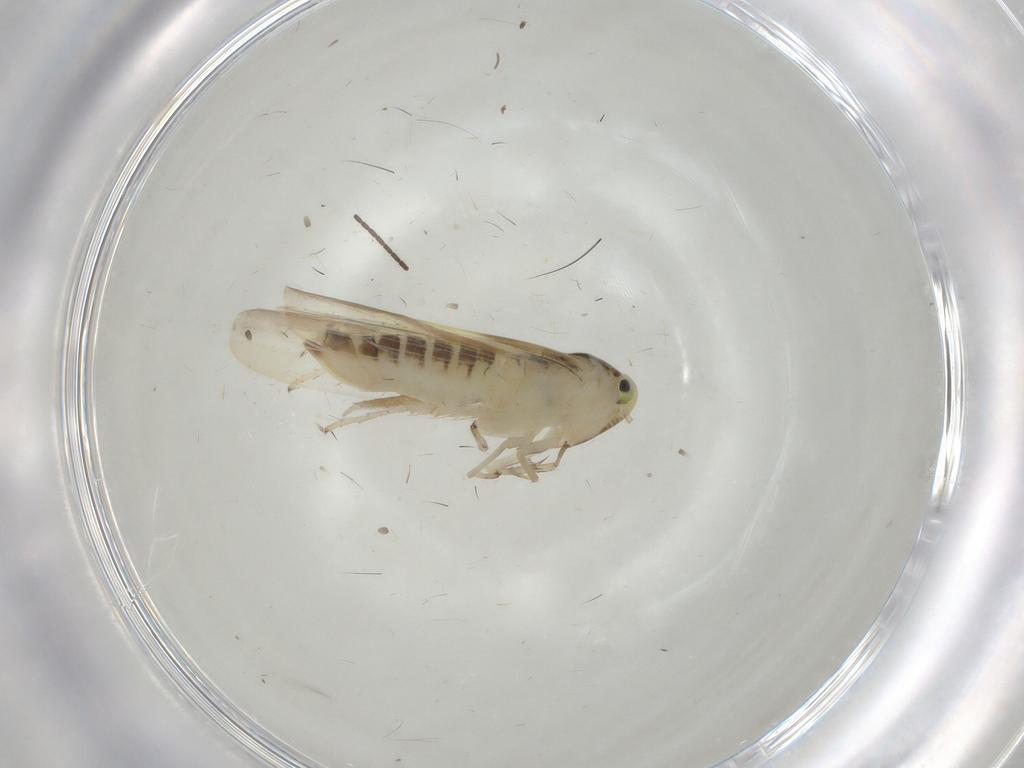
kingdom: Animalia
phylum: Arthropoda
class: Insecta
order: Hemiptera
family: Cicadellidae
